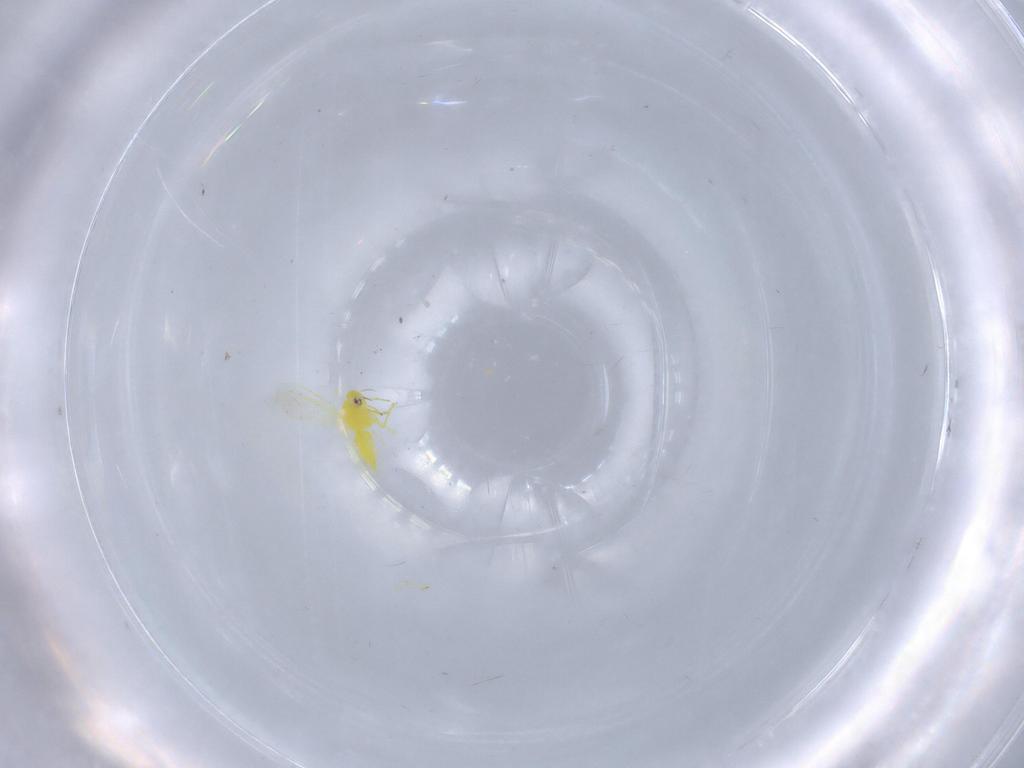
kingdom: Animalia
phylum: Arthropoda
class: Insecta
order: Hemiptera
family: Aleyrodidae
